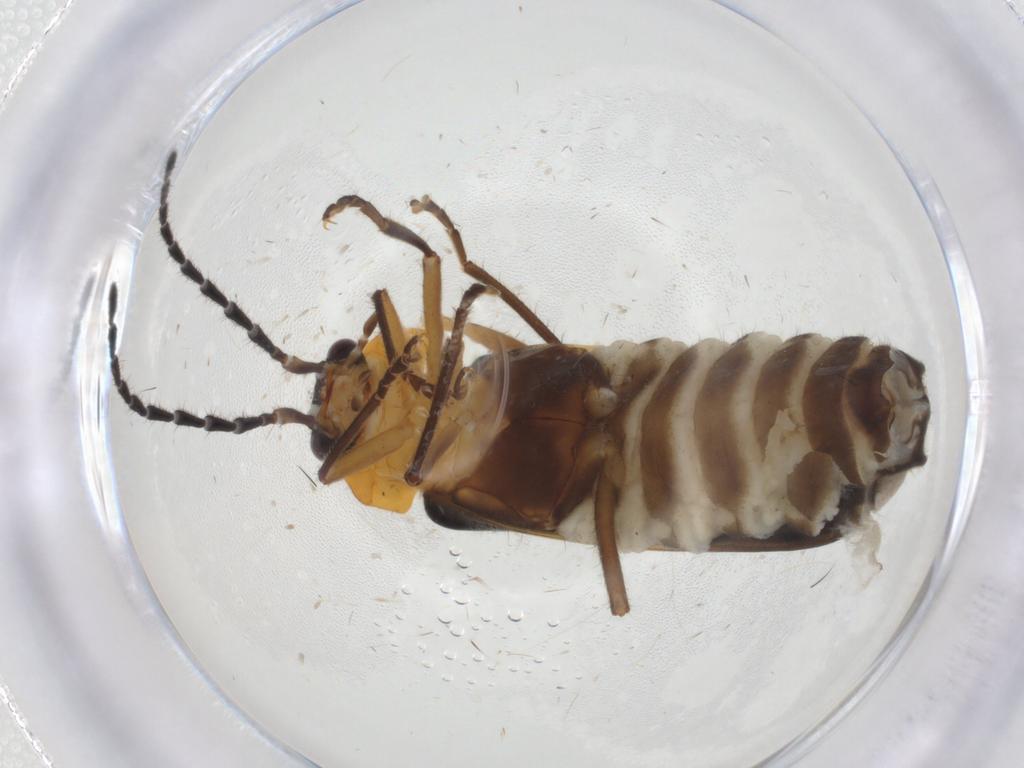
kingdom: Animalia
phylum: Arthropoda
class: Insecta
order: Coleoptera
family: Cantharidae
